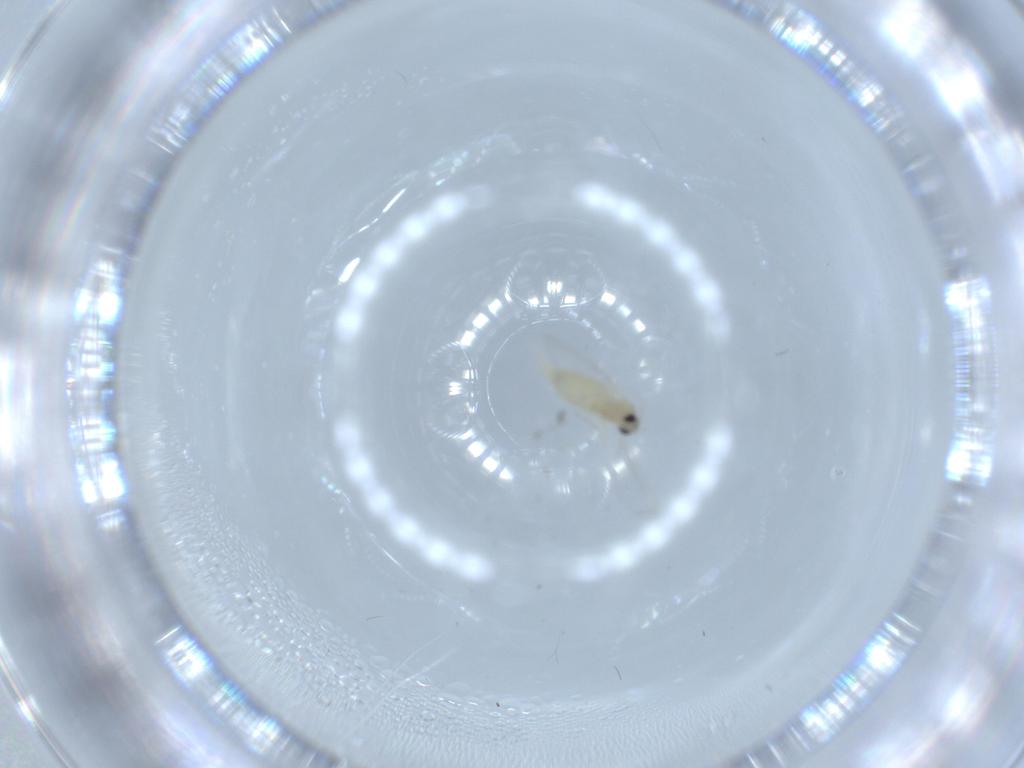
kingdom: Animalia
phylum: Arthropoda
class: Insecta
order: Diptera
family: Cecidomyiidae
